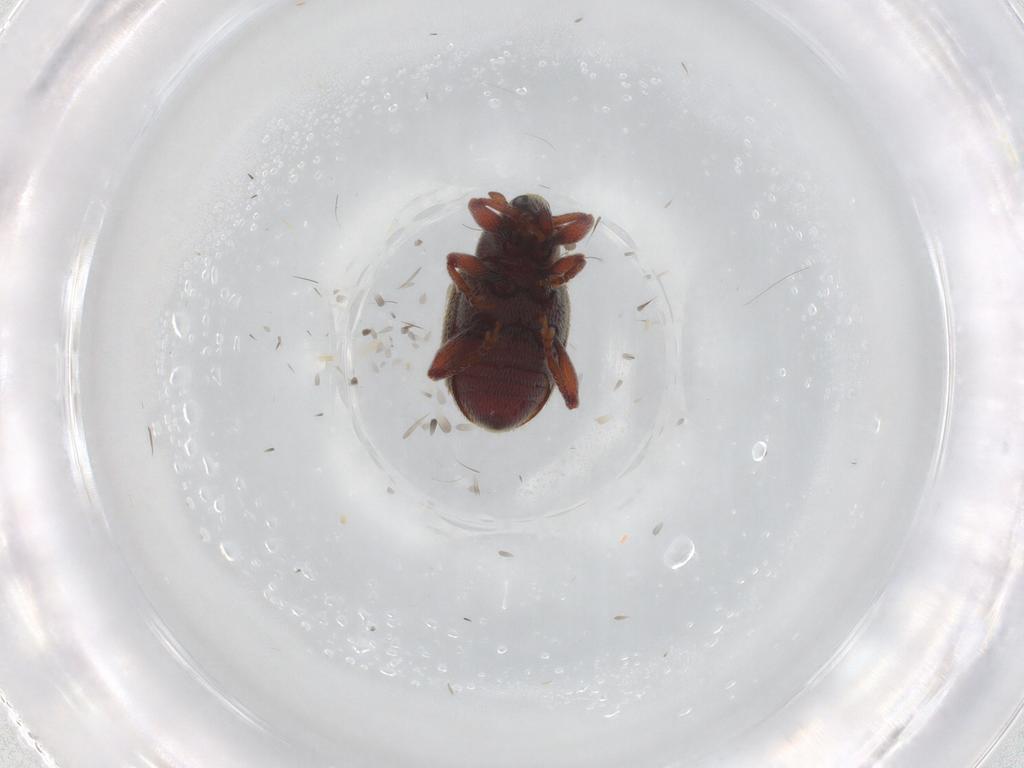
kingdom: Animalia
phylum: Arthropoda
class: Insecta
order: Coleoptera
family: Curculionidae
